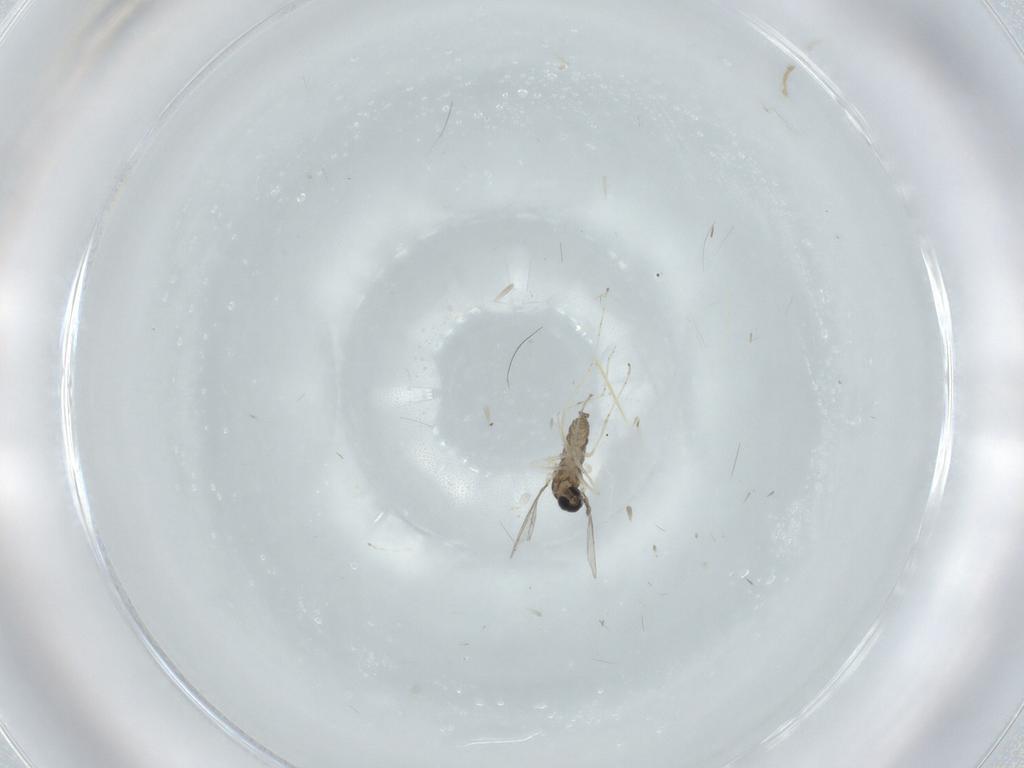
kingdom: Animalia
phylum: Arthropoda
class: Insecta
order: Diptera
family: Cecidomyiidae
